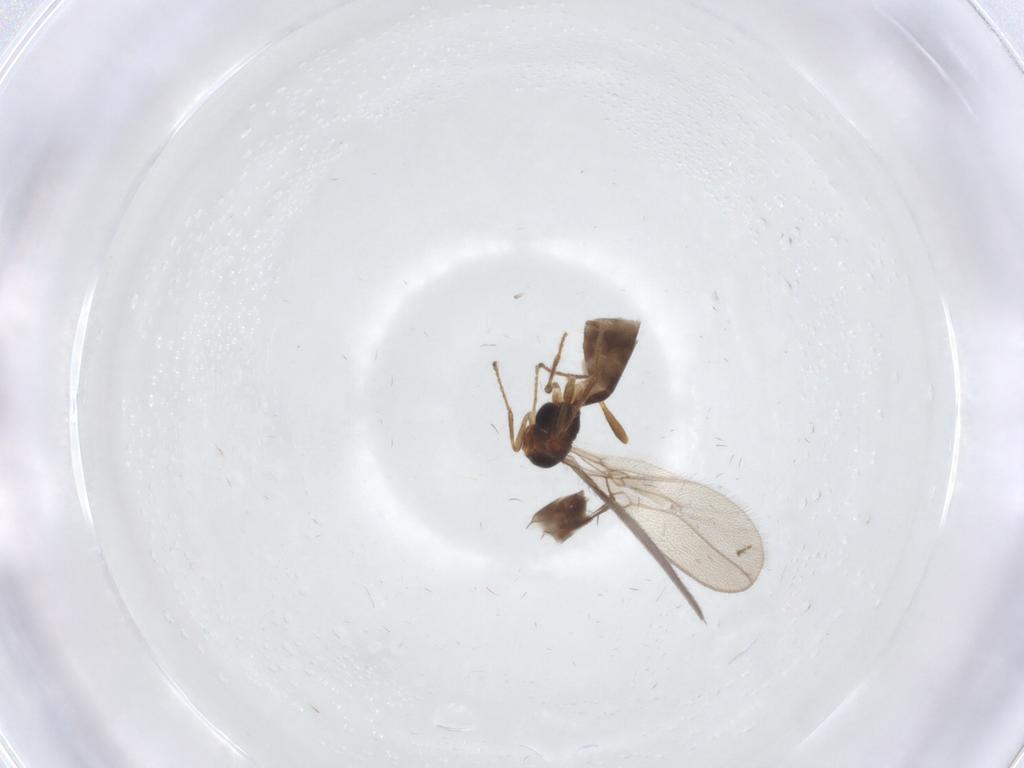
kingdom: Animalia
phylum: Arthropoda
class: Insecta
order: Hymenoptera
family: Braconidae
